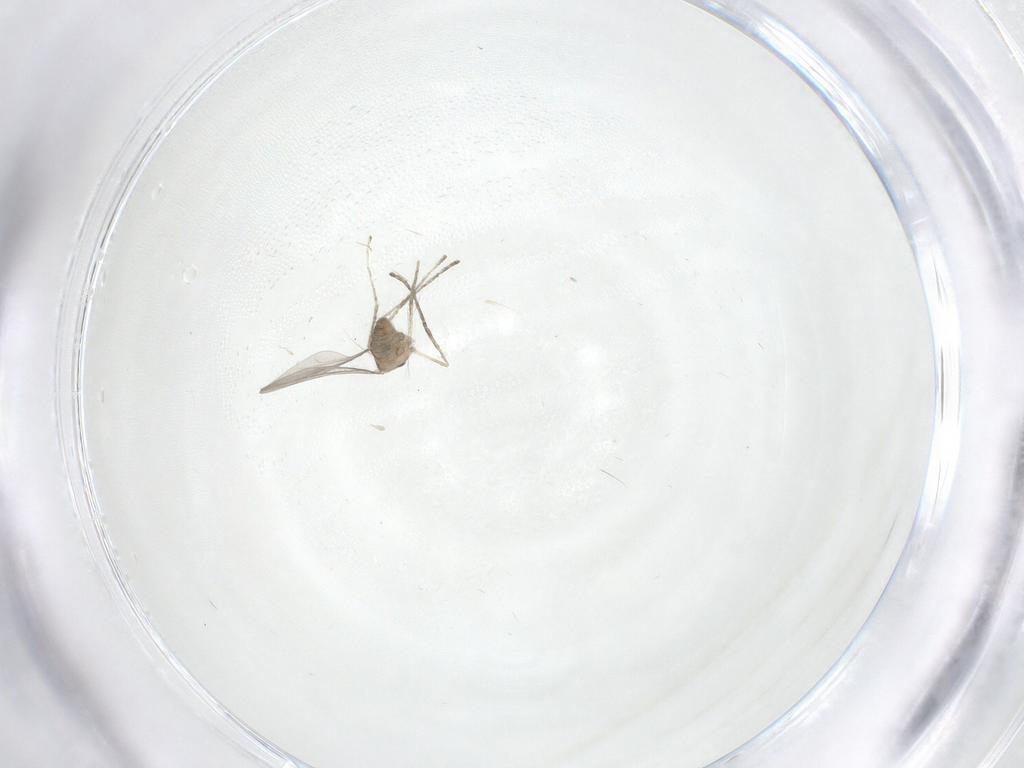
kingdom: Animalia
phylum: Arthropoda
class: Insecta
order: Diptera
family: Cecidomyiidae
